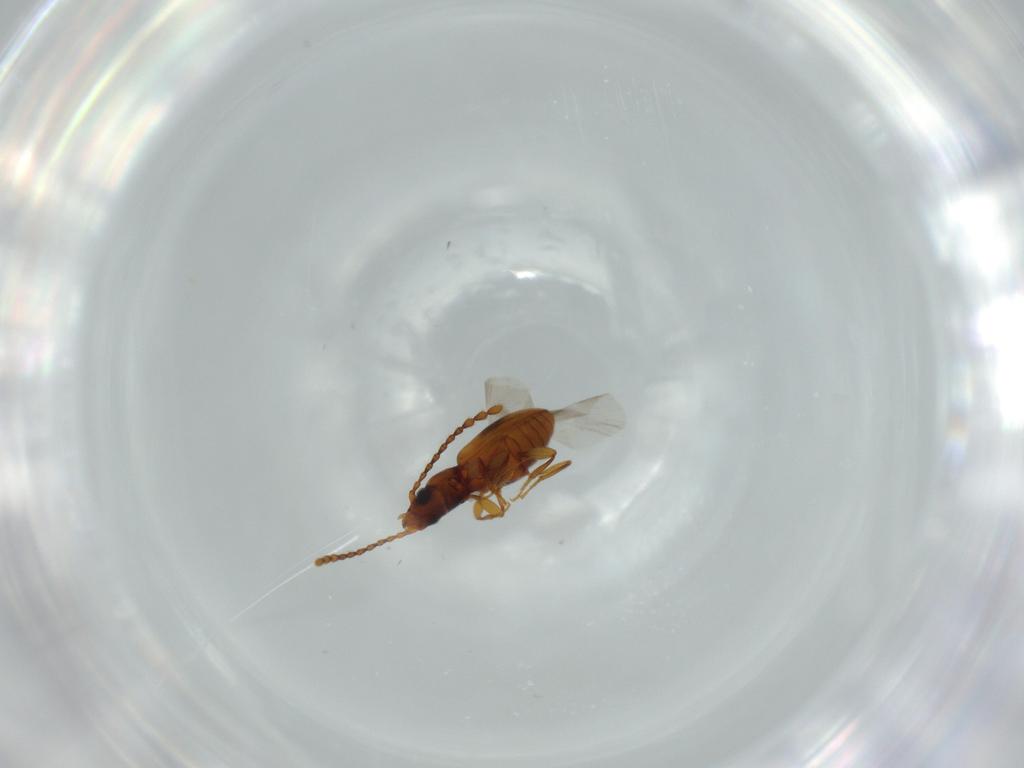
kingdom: Animalia
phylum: Arthropoda
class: Insecta
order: Coleoptera
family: Laemophloeidae
